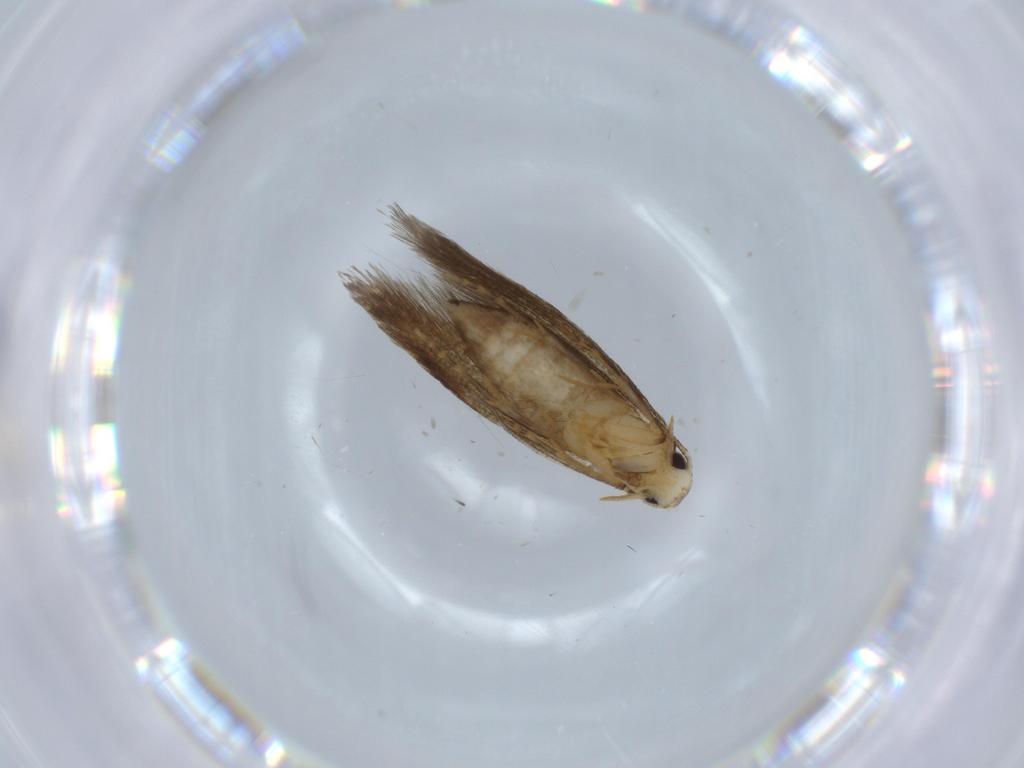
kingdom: Animalia
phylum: Arthropoda
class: Insecta
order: Lepidoptera
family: Tineidae
